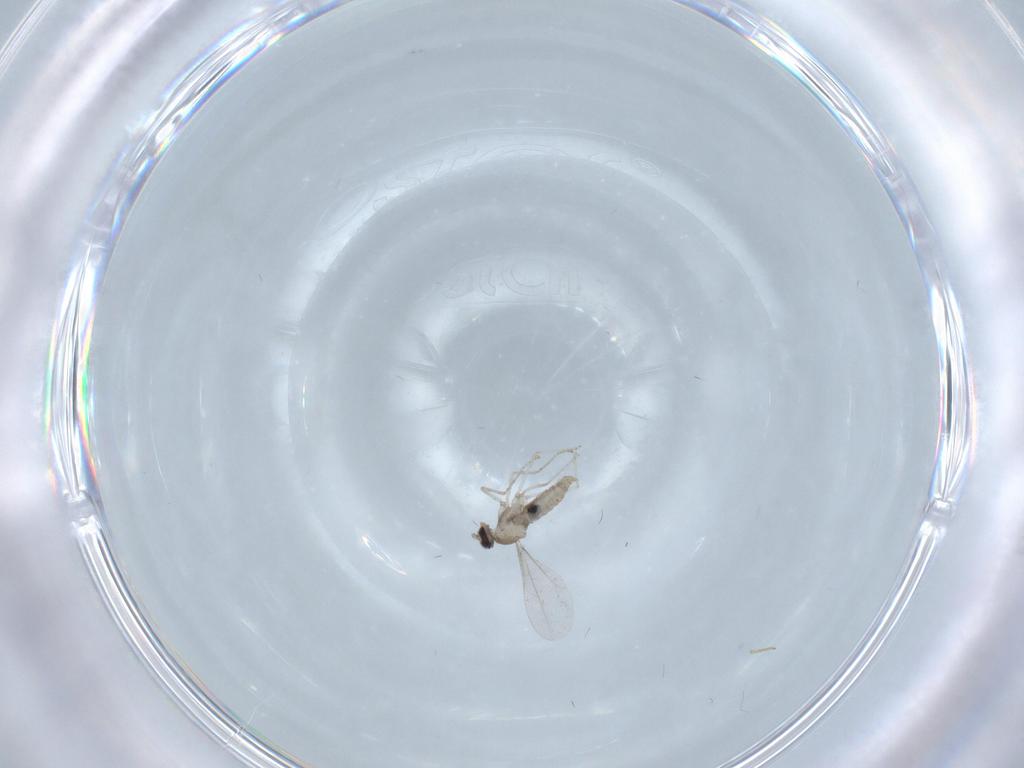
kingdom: Animalia
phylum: Arthropoda
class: Insecta
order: Diptera
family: Cecidomyiidae
